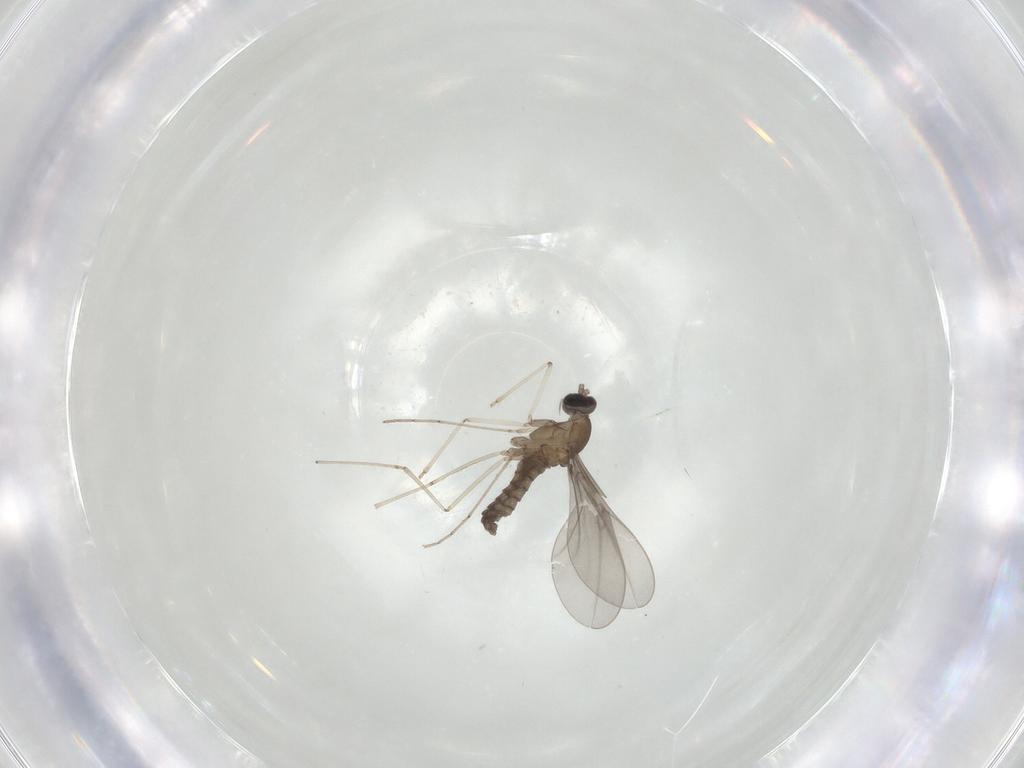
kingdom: Animalia
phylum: Arthropoda
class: Insecta
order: Diptera
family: Cecidomyiidae
